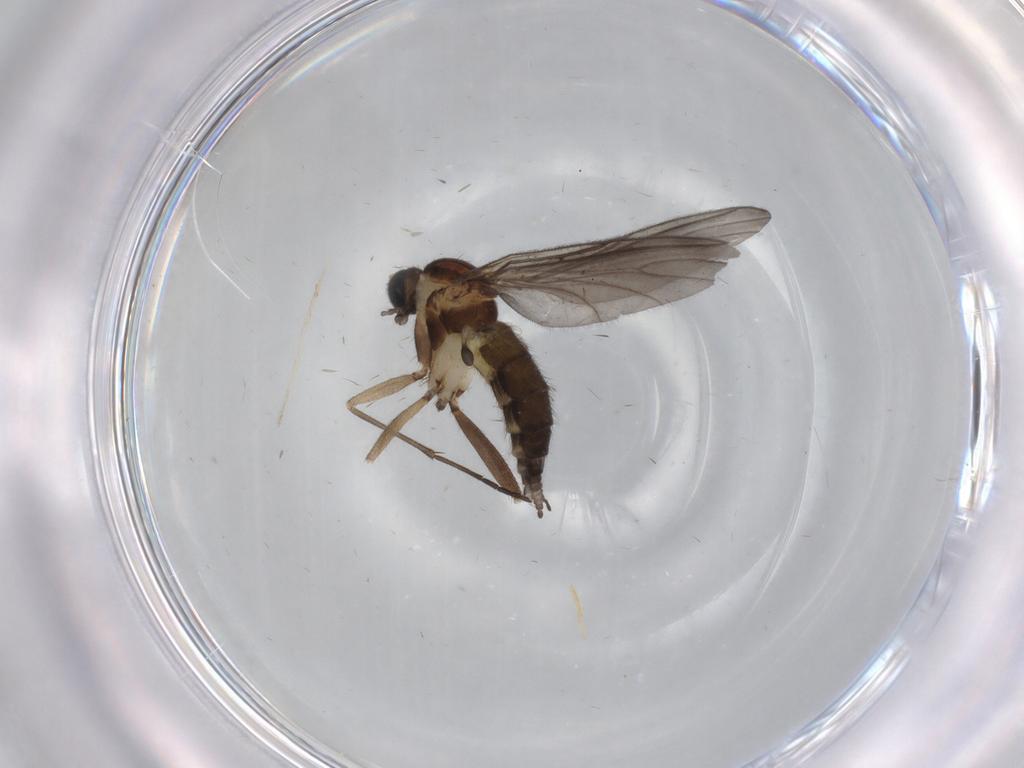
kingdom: Animalia
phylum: Arthropoda
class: Insecta
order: Diptera
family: Sciaridae
